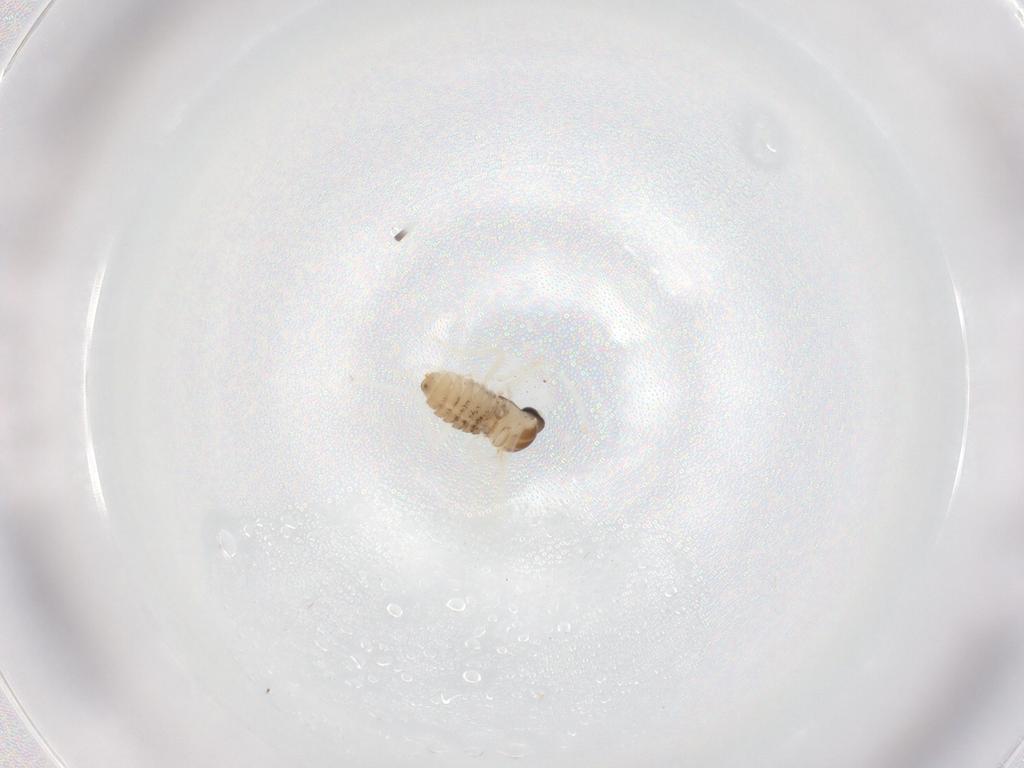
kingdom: Animalia
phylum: Arthropoda
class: Insecta
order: Diptera
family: Cecidomyiidae
